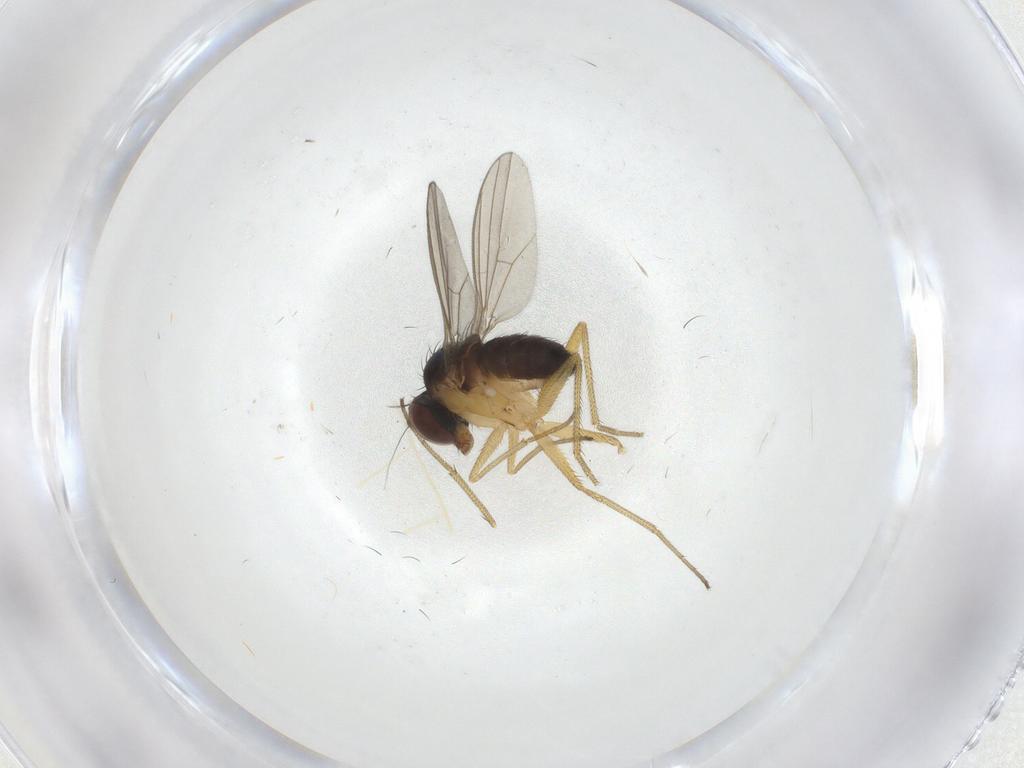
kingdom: Animalia
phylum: Arthropoda
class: Insecta
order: Diptera
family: Dolichopodidae
